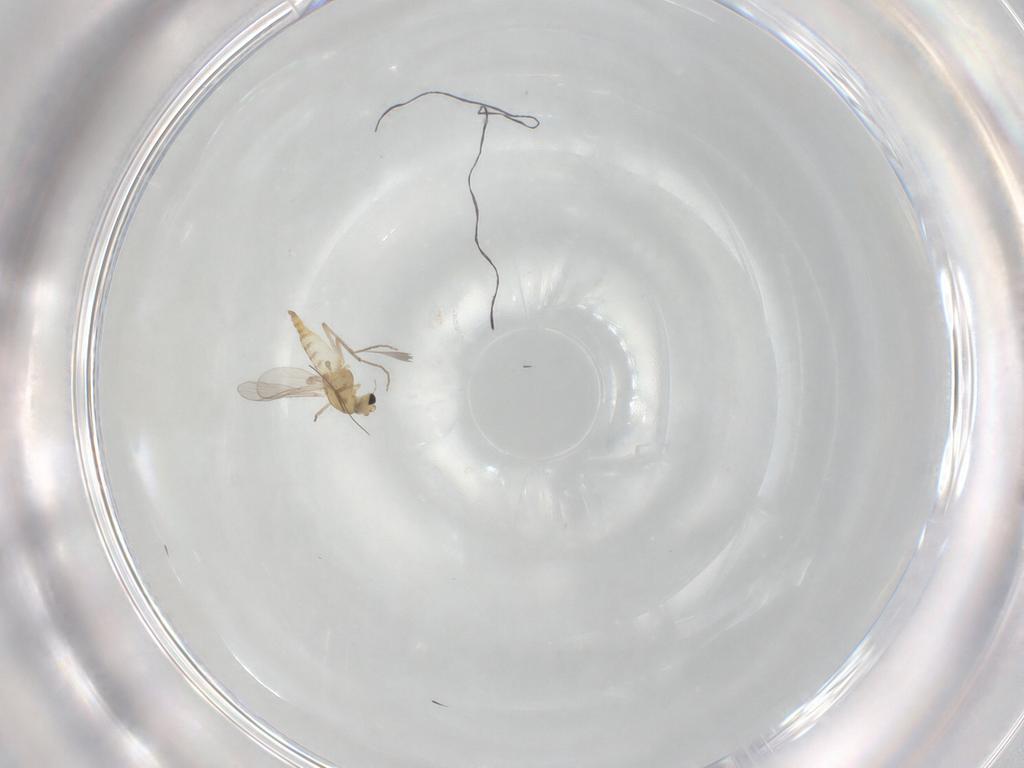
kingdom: Animalia
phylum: Arthropoda
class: Insecta
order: Diptera
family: Chironomidae
